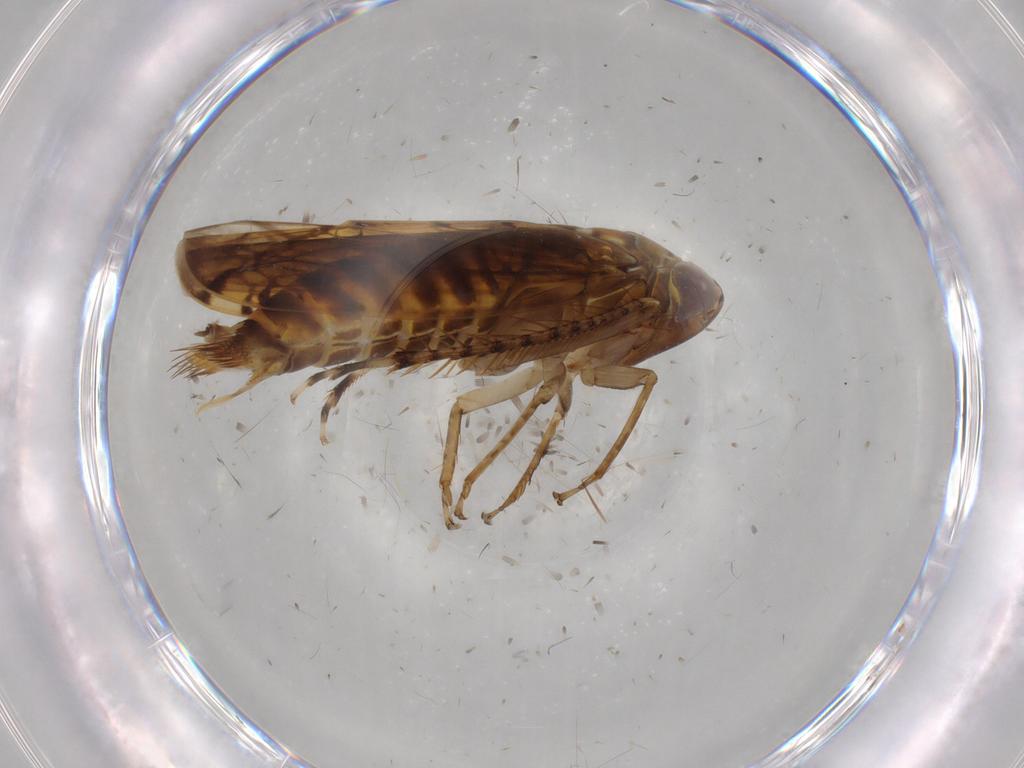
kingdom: Animalia
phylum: Arthropoda
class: Insecta
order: Hemiptera
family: Cicadellidae
